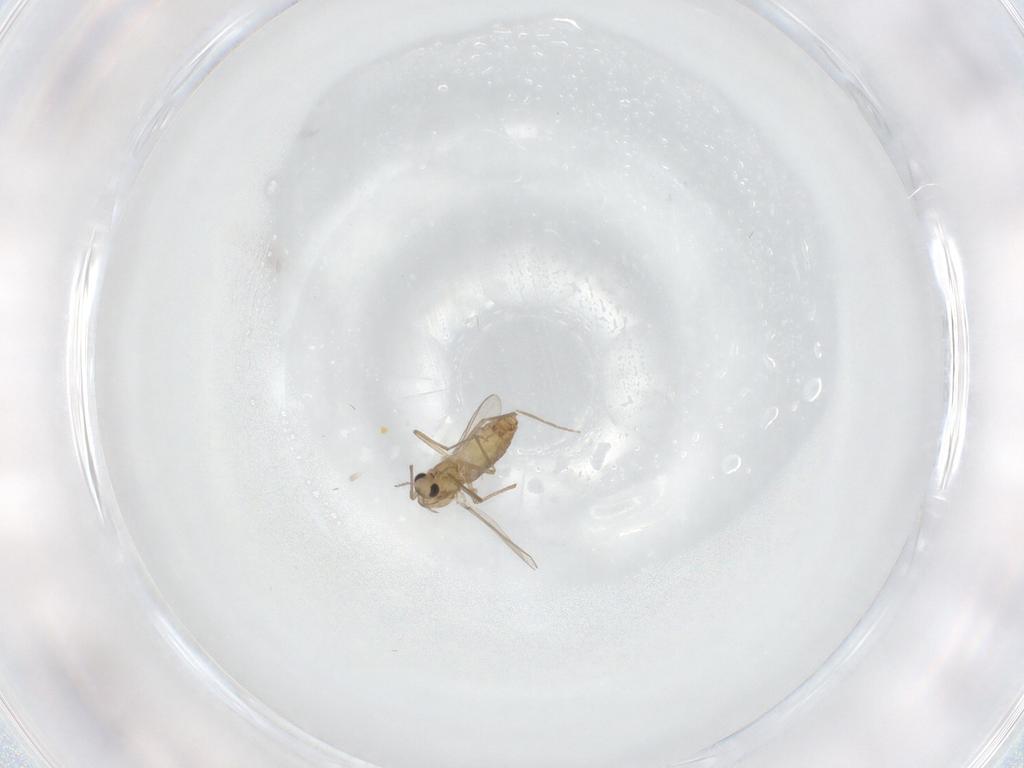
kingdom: Animalia
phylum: Arthropoda
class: Insecta
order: Diptera
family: Chironomidae
